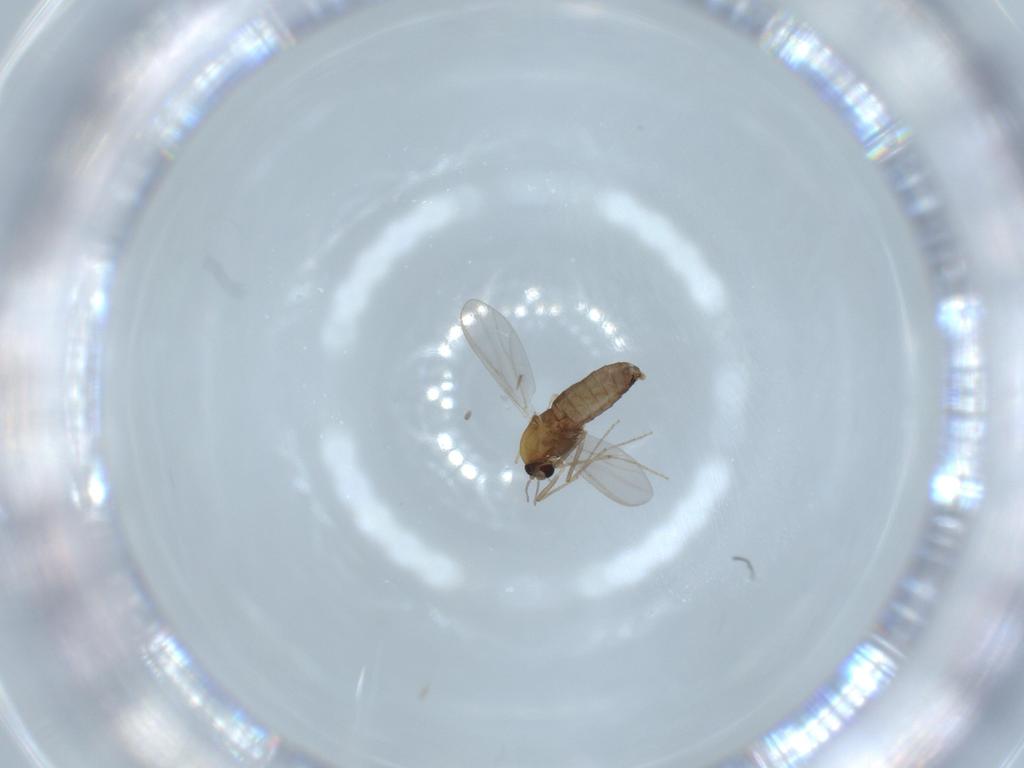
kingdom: Animalia
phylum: Arthropoda
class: Insecta
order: Diptera
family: Chironomidae
